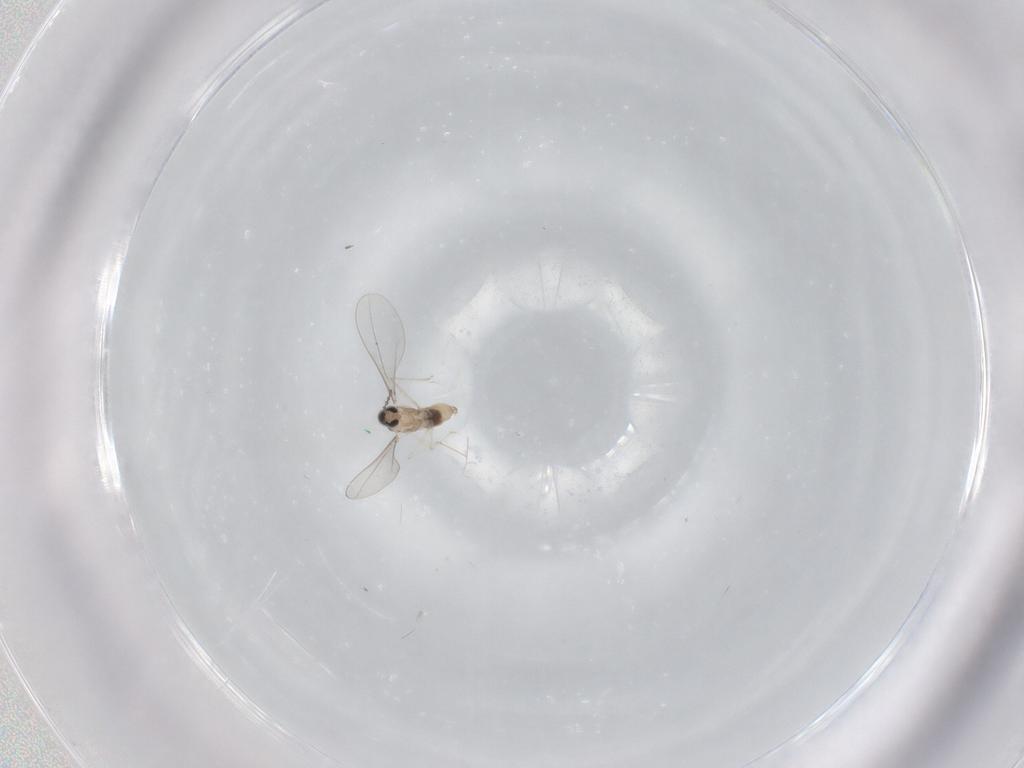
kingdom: Animalia
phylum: Arthropoda
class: Insecta
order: Diptera
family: Cecidomyiidae
